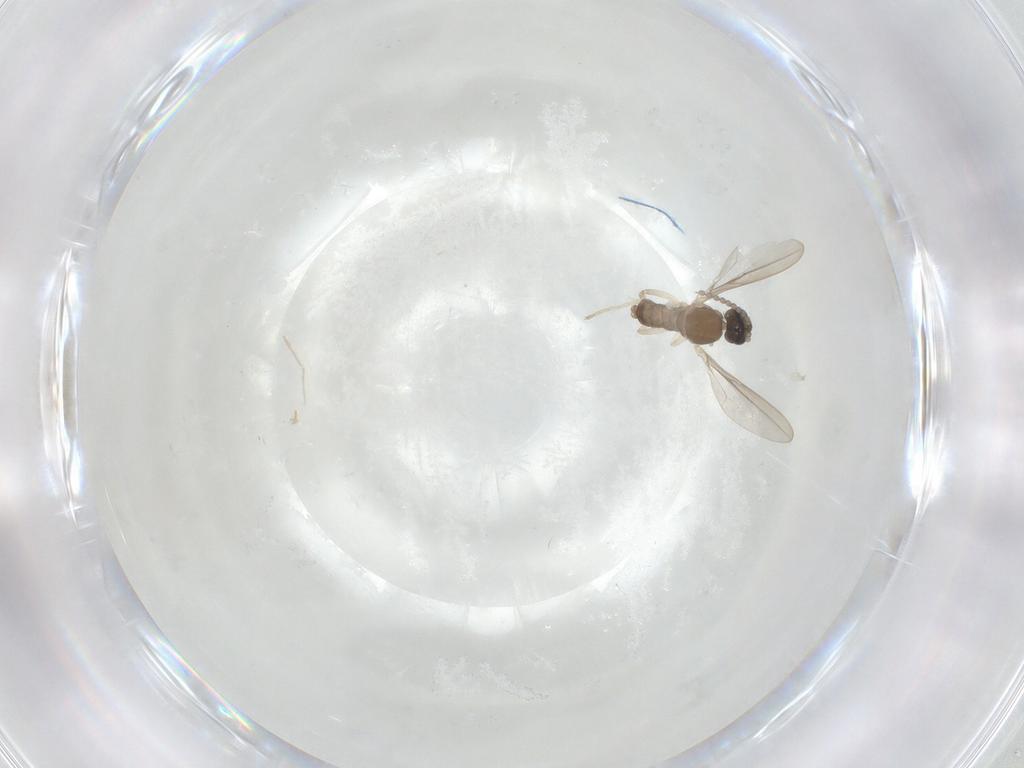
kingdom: Animalia
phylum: Arthropoda
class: Insecta
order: Diptera
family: Cecidomyiidae
